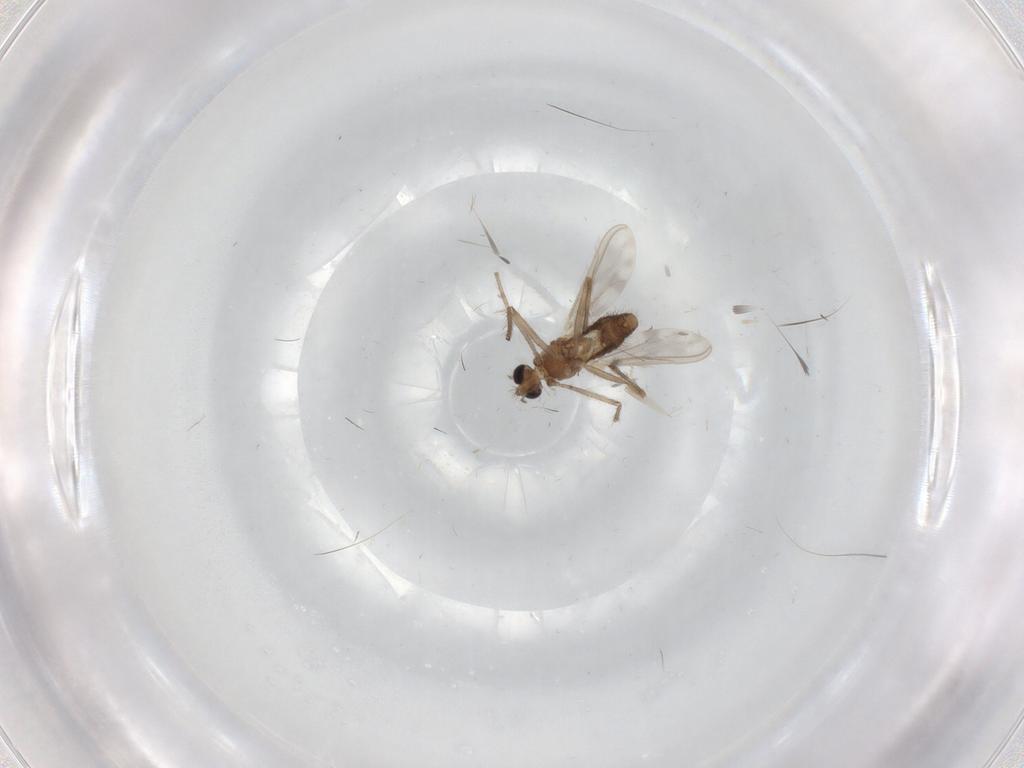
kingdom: Animalia
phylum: Arthropoda
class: Insecta
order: Diptera
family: Chironomidae
